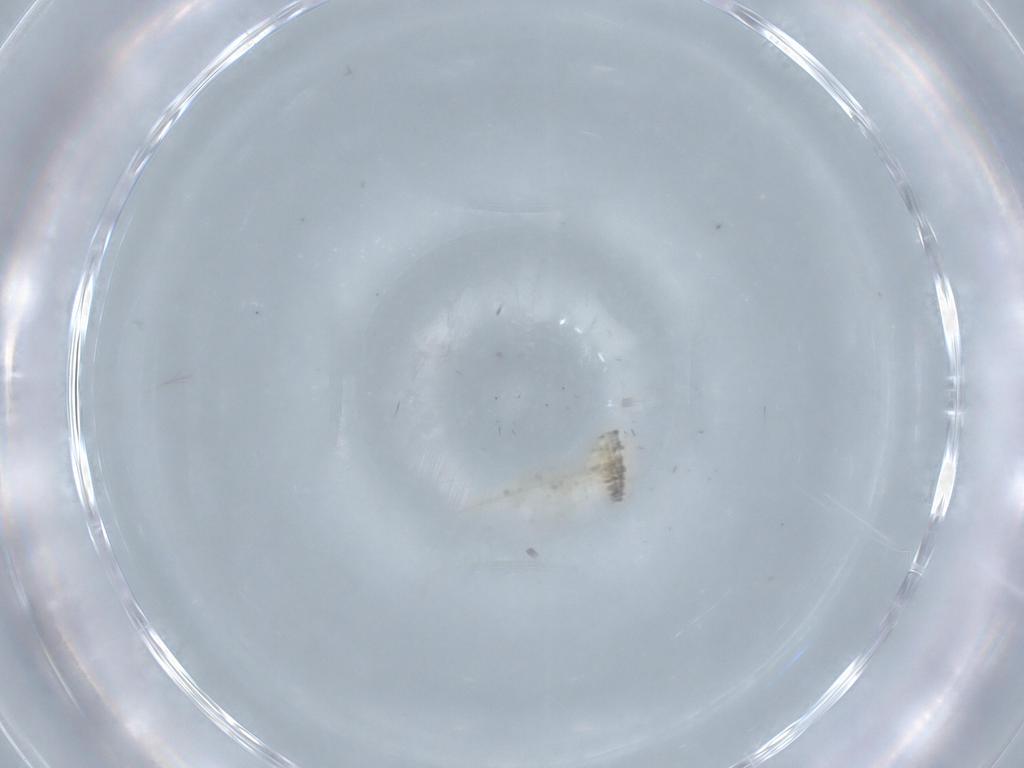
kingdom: Animalia
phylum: Arthropoda
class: Insecta
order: Diptera
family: Ceratopogonidae
